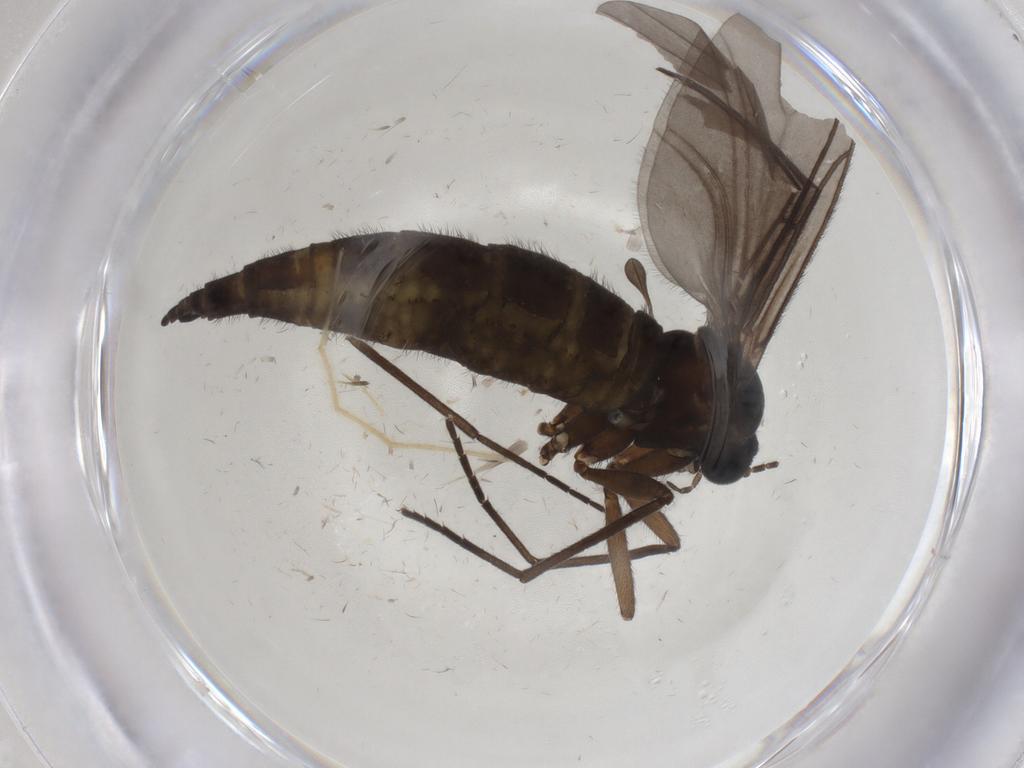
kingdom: Animalia
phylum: Arthropoda
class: Insecta
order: Diptera
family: Sciaridae
